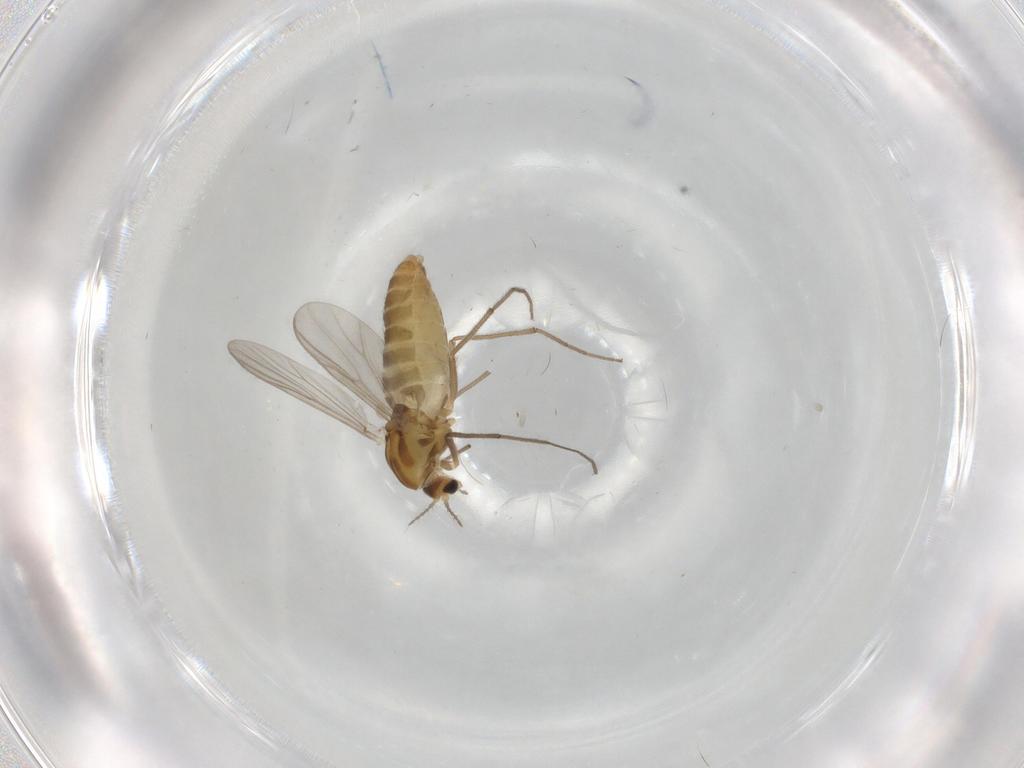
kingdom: Animalia
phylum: Arthropoda
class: Insecta
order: Diptera
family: Chironomidae
